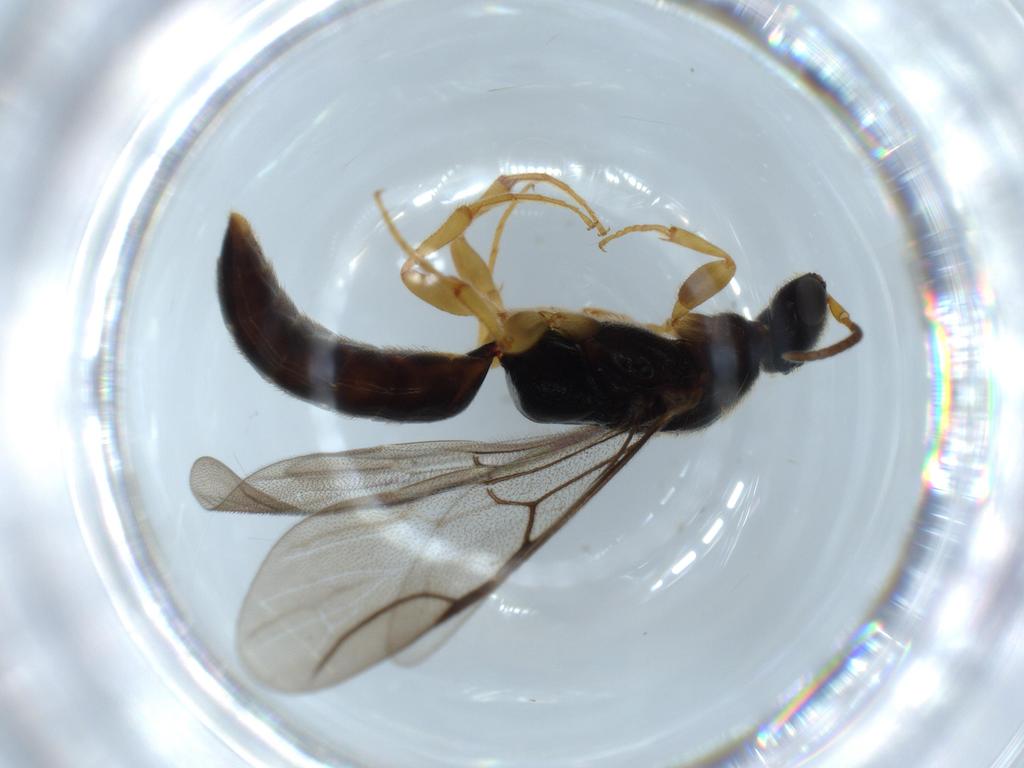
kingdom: Animalia
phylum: Arthropoda
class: Insecta
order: Hymenoptera
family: Bethylidae
